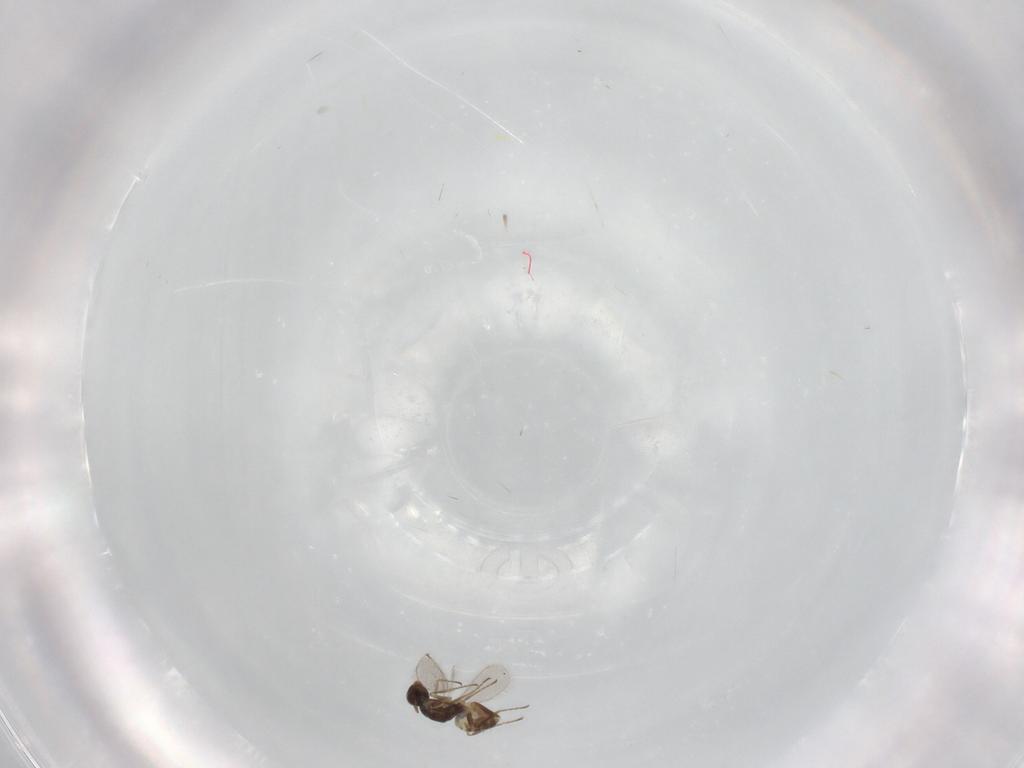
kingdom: Animalia
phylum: Arthropoda
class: Insecta
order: Hymenoptera
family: Mymaridae
